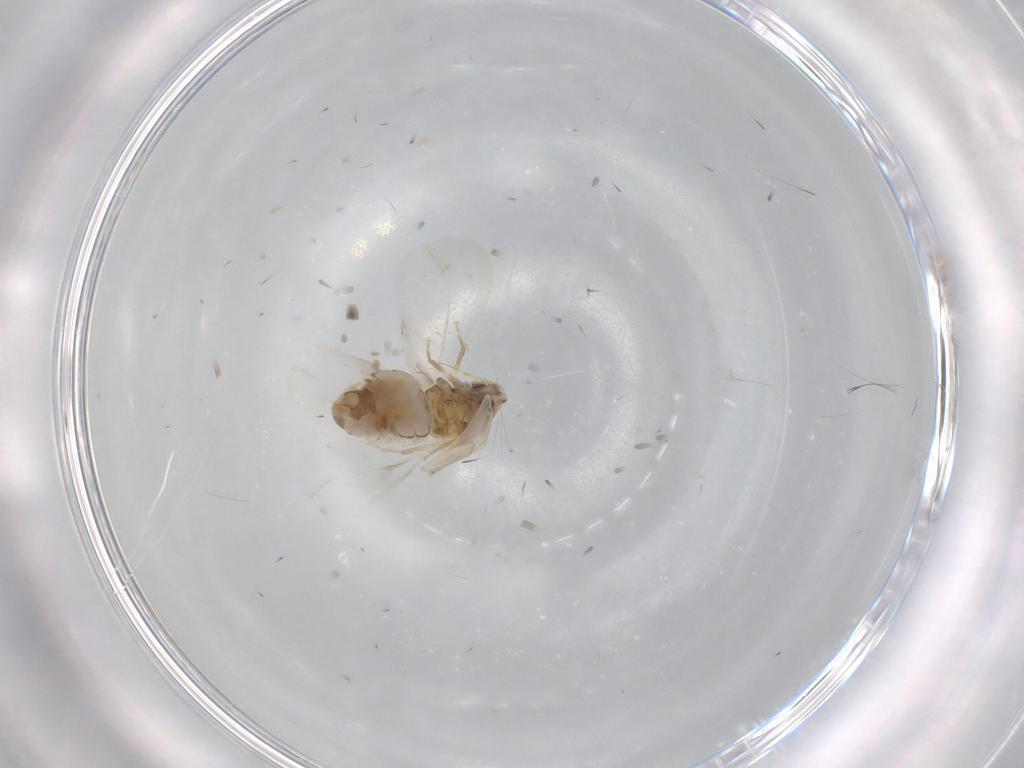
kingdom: Animalia
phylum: Arthropoda
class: Insecta
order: Hemiptera
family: Aleyrodidae
